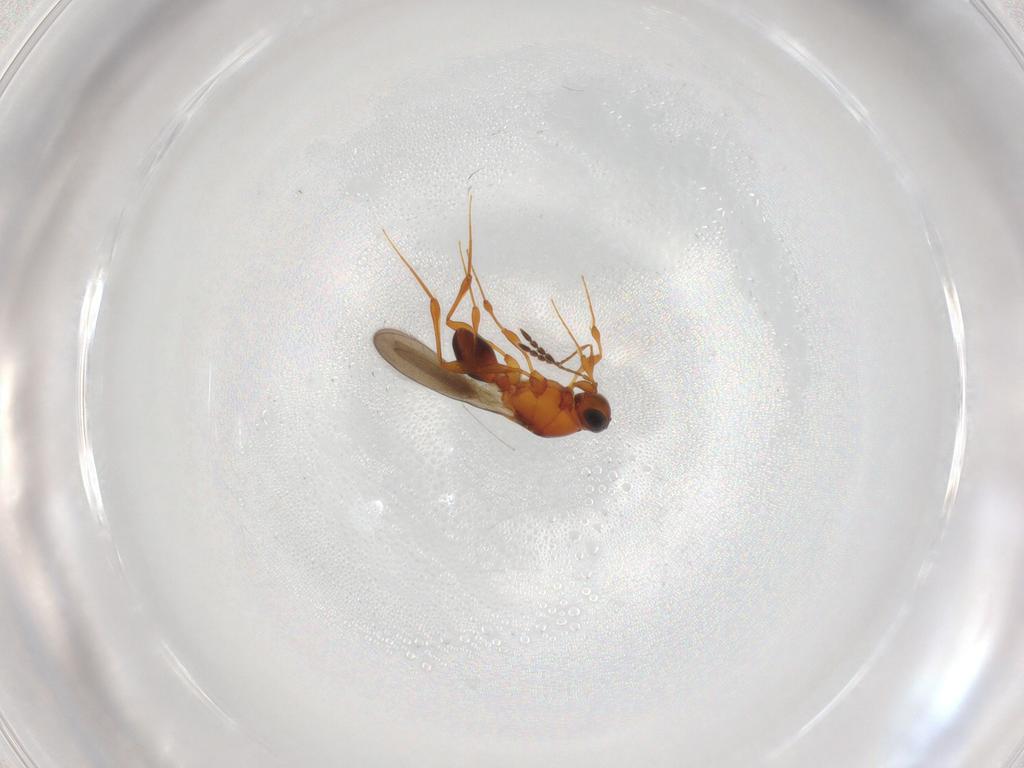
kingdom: Animalia
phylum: Arthropoda
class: Insecta
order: Hymenoptera
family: Platygastridae
